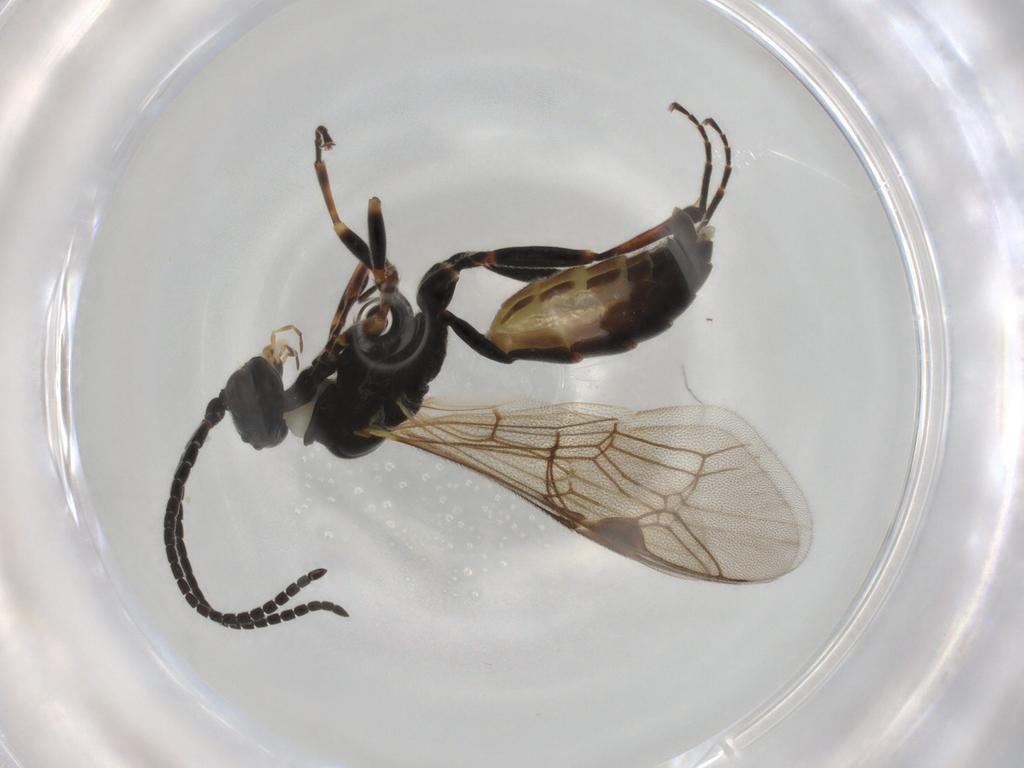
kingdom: Animalia
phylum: Arthropoda
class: Insecta
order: Hymenoptera
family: Ichneumonidae
